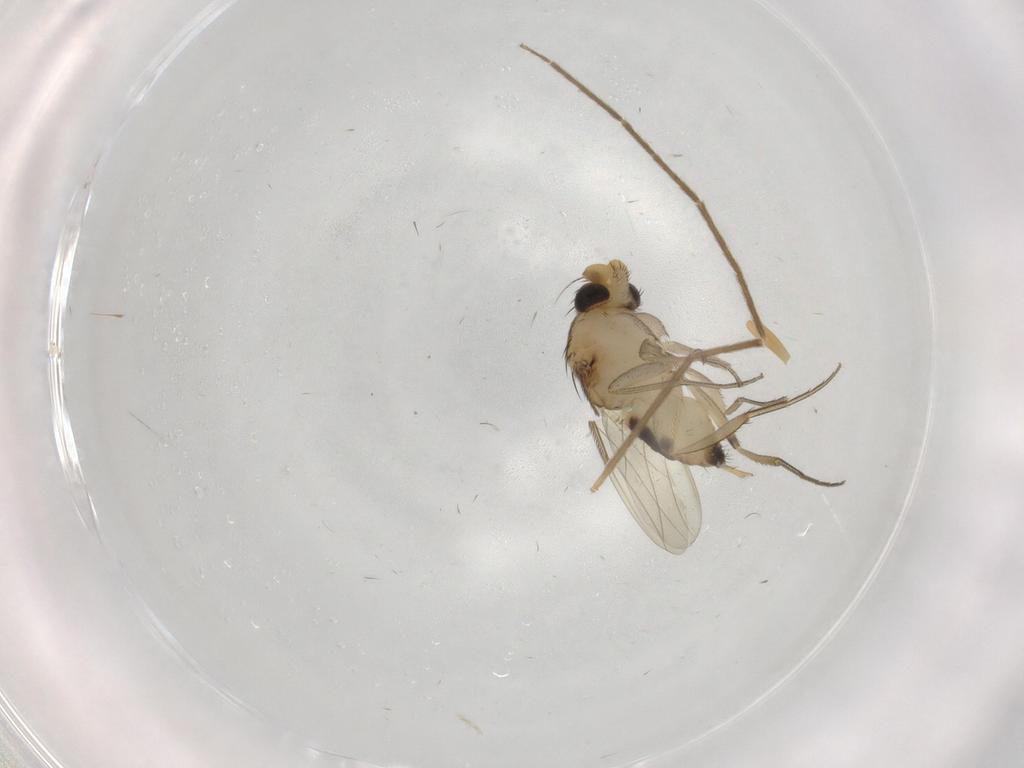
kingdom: Animalia
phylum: Arthropoda
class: Insecta
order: Diptera
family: Phoridae
